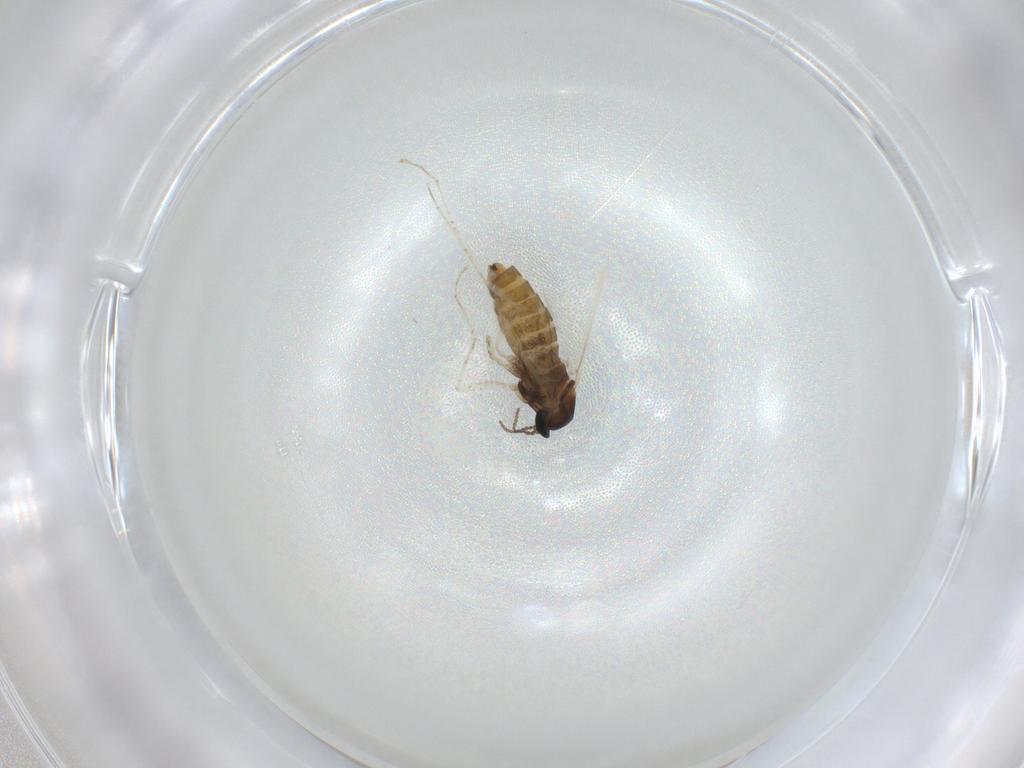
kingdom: Animalia
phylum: Arthropoda
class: Insecta
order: Diptera
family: Cecidomyiidae
